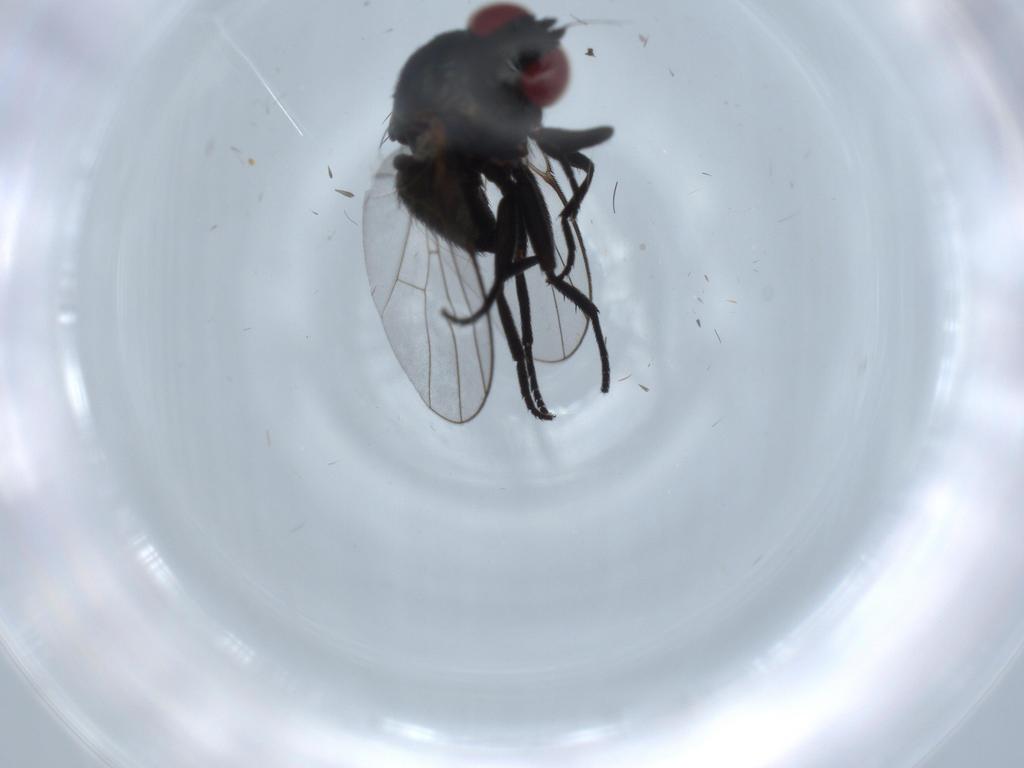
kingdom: Animalia
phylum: Arthropoda
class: Insecta
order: Diptera
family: Agromyzidae
